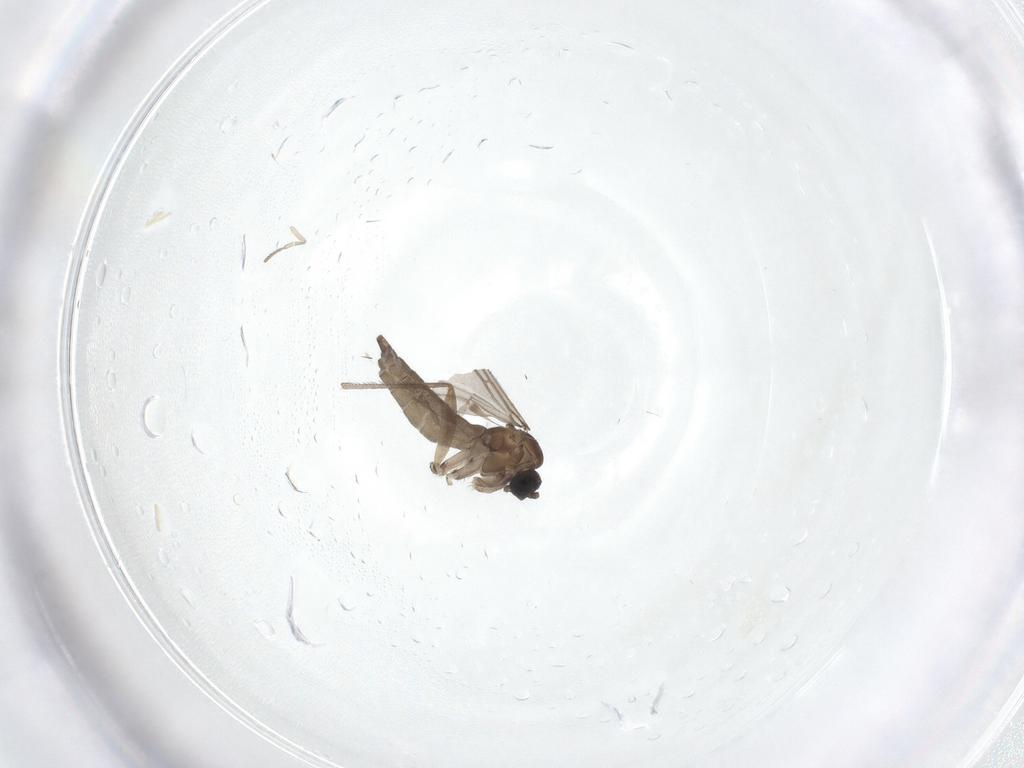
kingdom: Animalia
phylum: Arthropoda
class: Insecta
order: Diptera
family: Sciaridae
